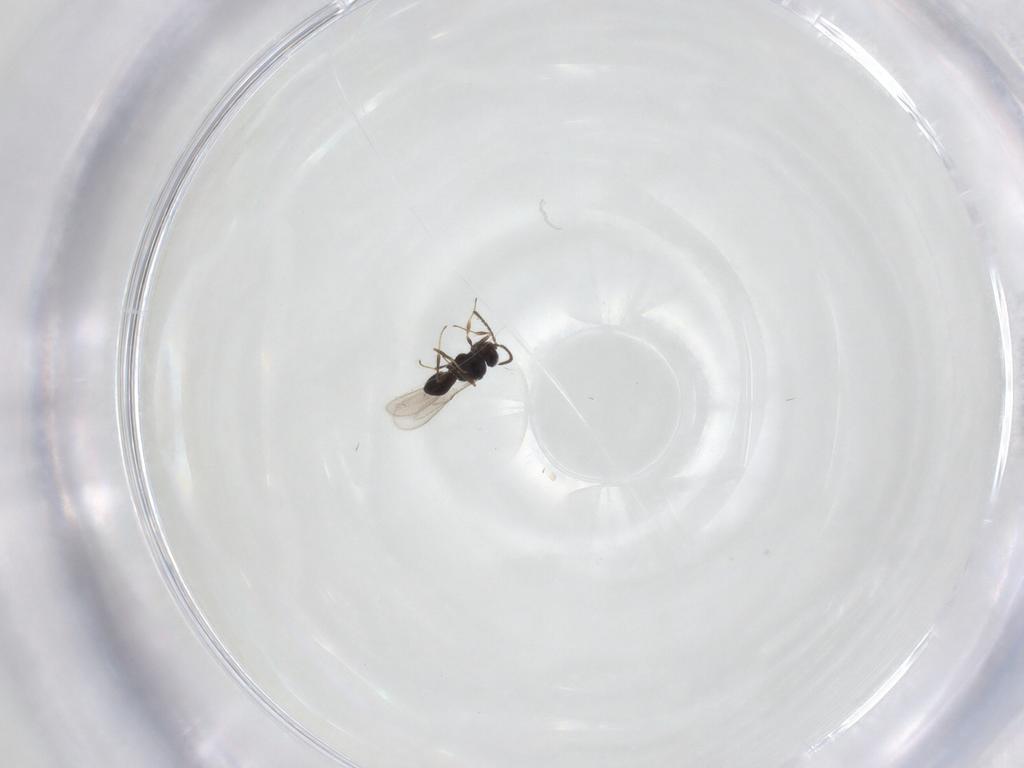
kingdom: Animalia
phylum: Arthropoda
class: Insecta
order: Hymenoptera
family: Scelionidae
